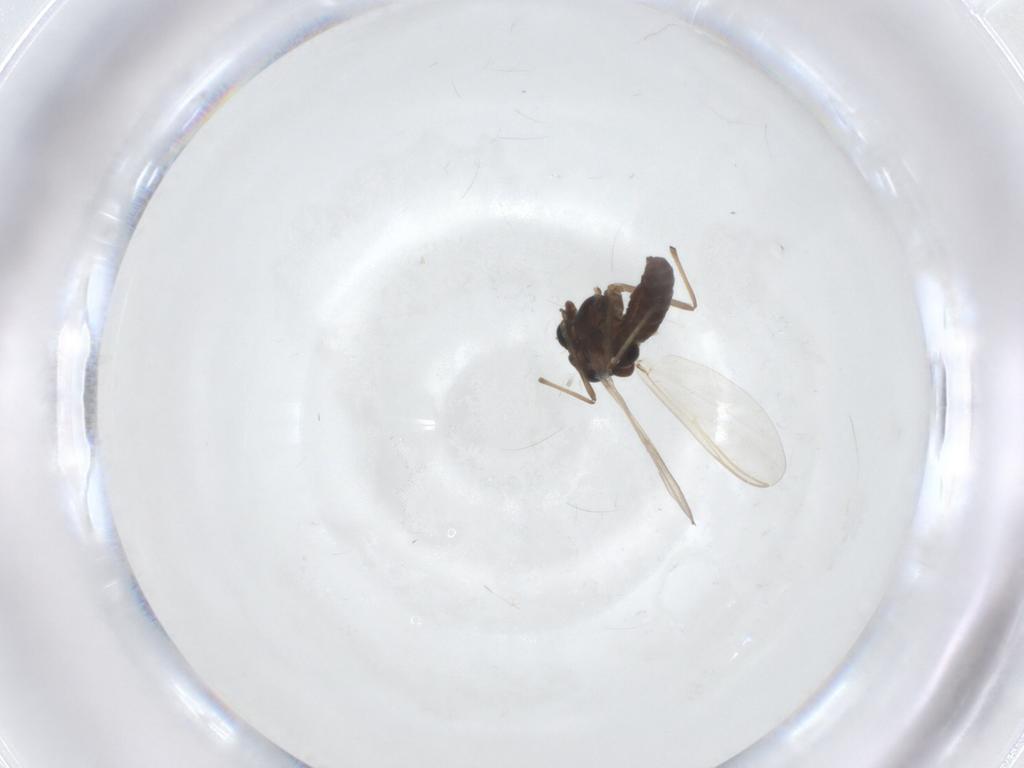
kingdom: Animalia
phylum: Arthropoda
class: Insecta
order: Diptera
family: Chironomidae
